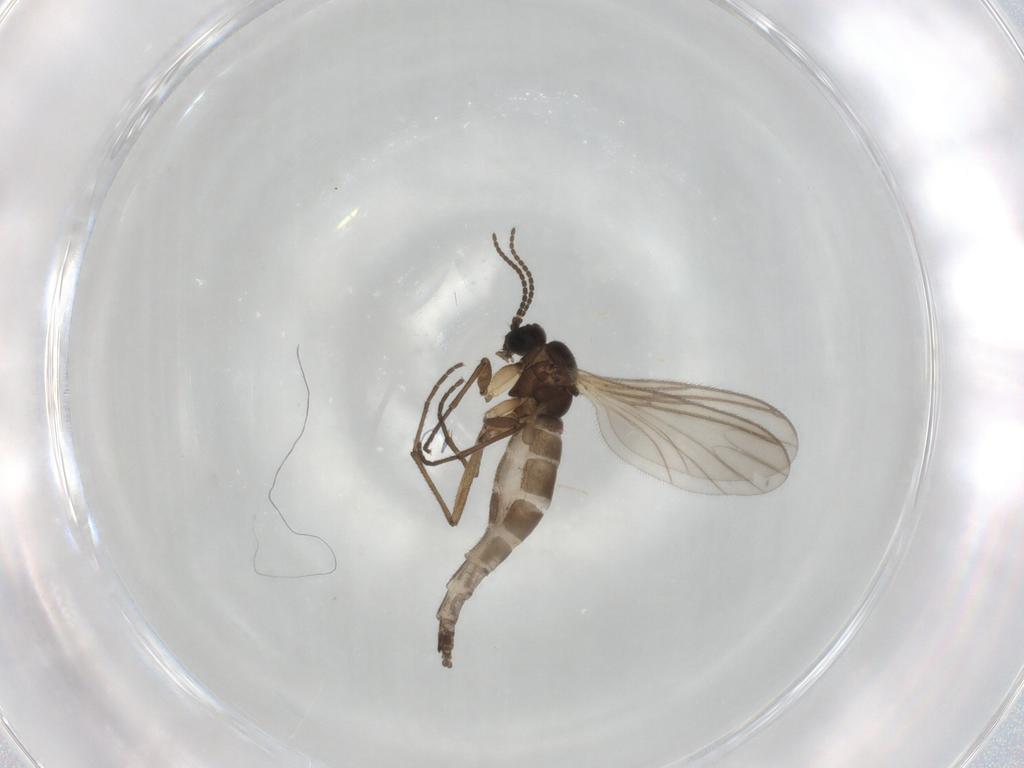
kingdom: Animalia
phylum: Arthropoda
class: Insecta
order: Diptera
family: Sciaridae
